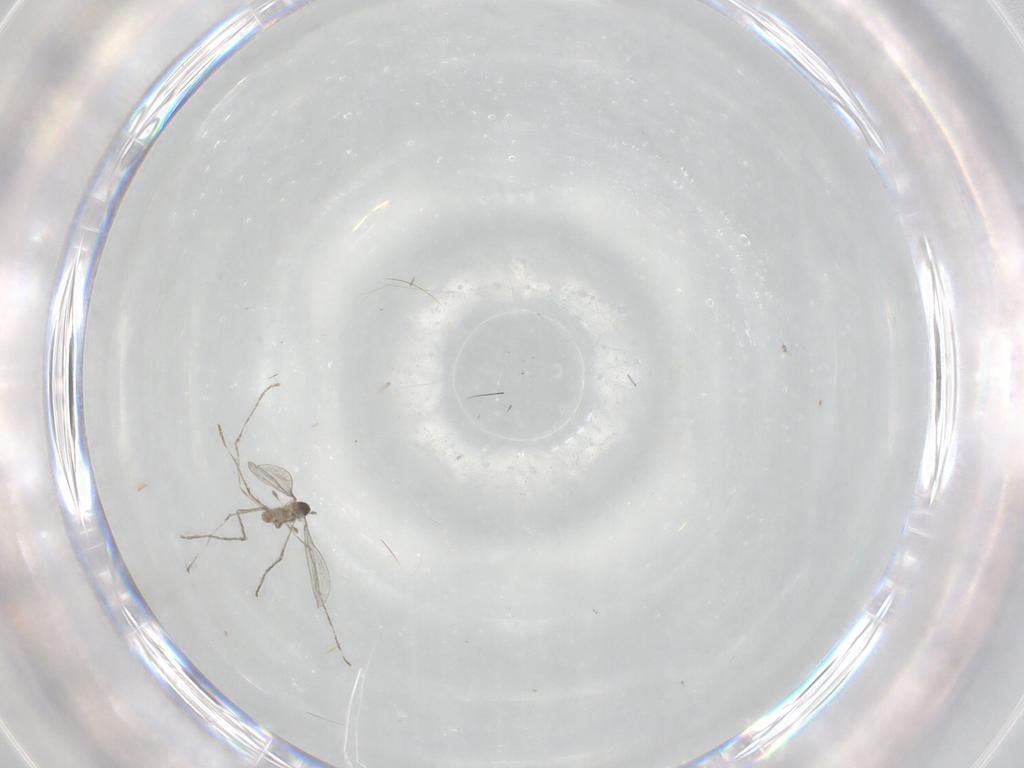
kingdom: Animalia
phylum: Arthropoda
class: Insecta
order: Diptera
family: Cecidomyiidae
